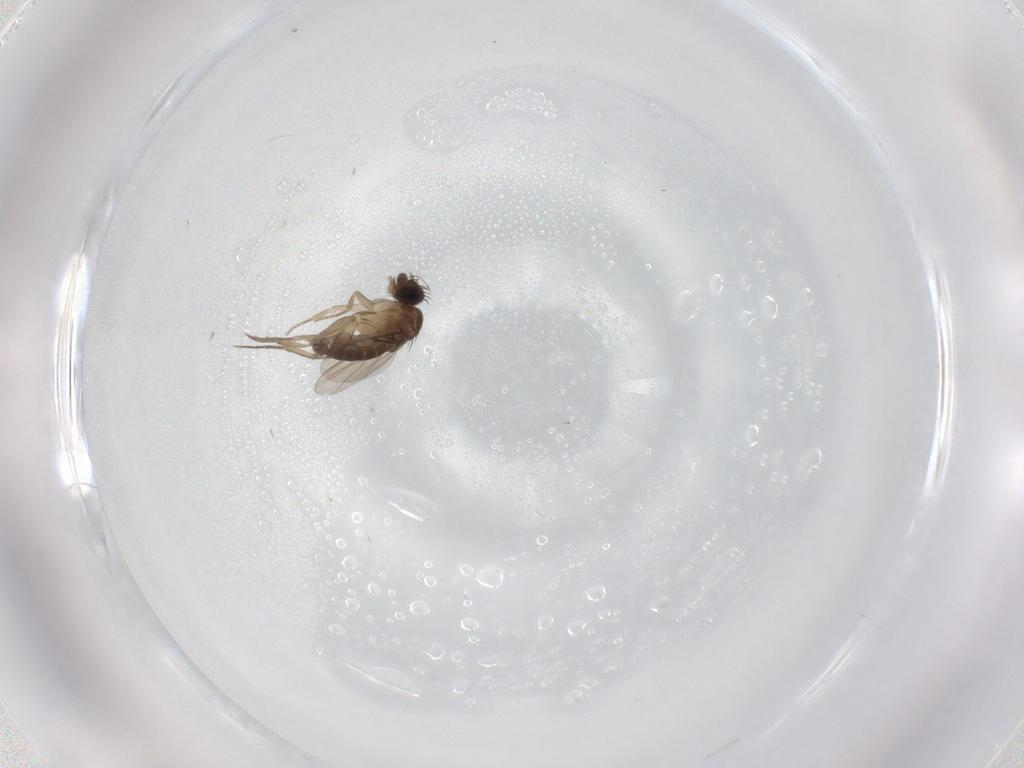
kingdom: Animalia
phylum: Arthropoda
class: Insecta
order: Diptera
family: Phoridae
